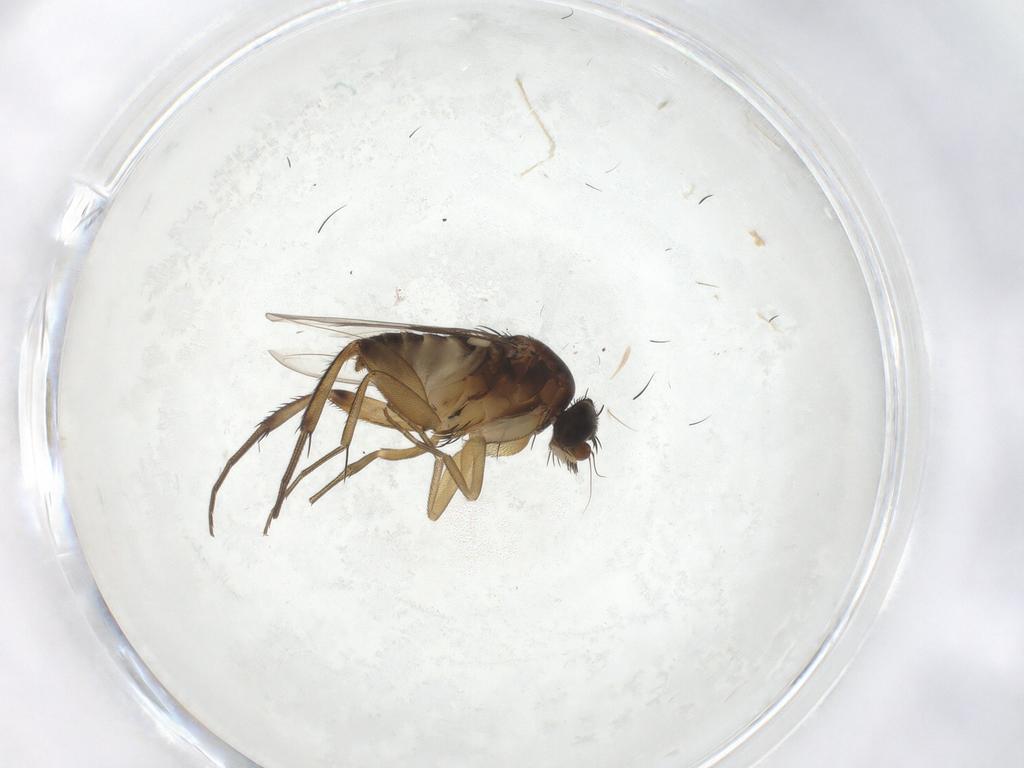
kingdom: Animalia
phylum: Arthropoda
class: Insecta
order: Diptera
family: Phoridae
